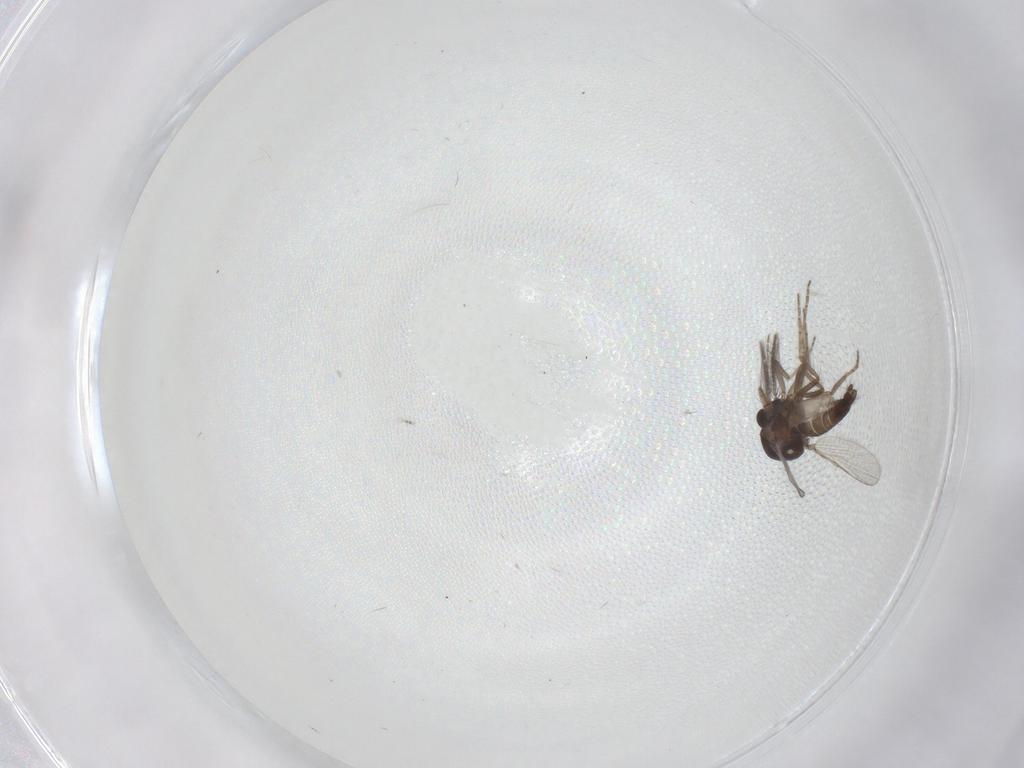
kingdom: Animalia
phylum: Arthropoda
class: Insecta
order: Diptera
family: Ceratopogonidae
